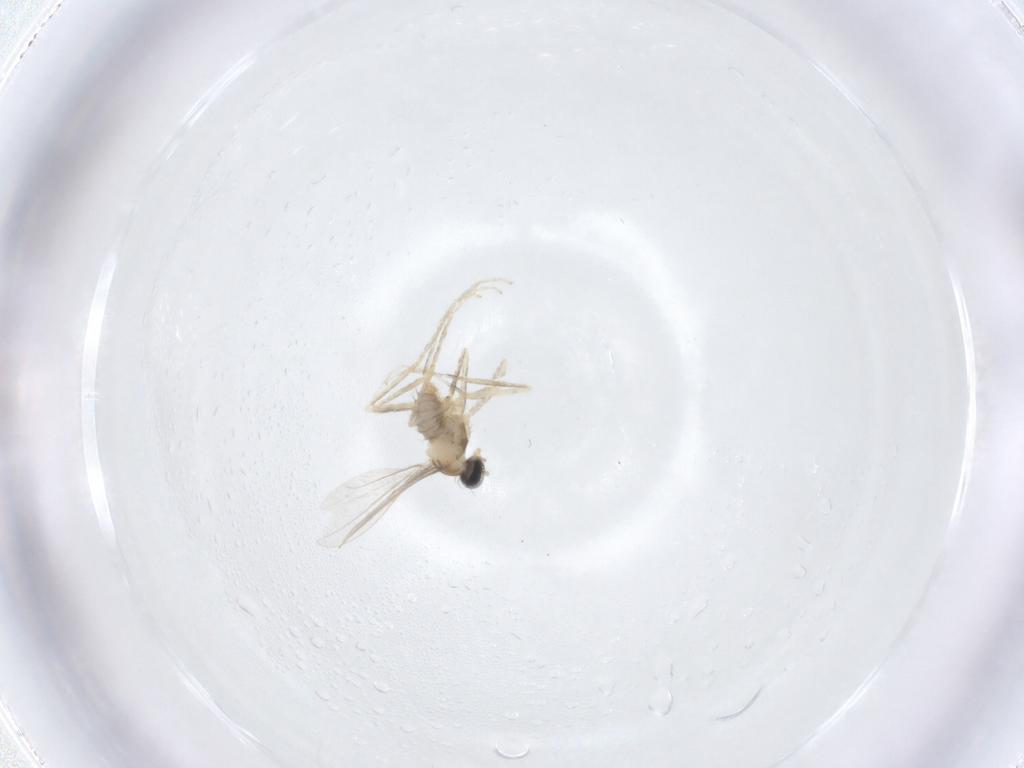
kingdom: Animalia
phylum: Arthropoda
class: Insecta
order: Diptera
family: Cecidomyiidae
